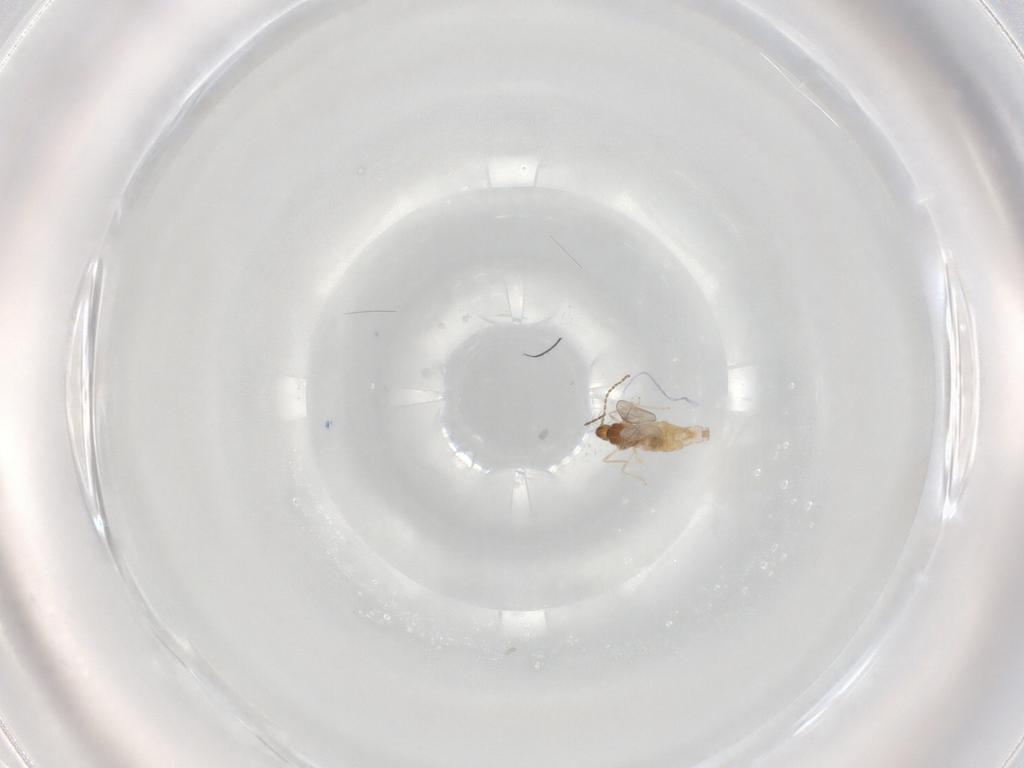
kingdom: Animalia
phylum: Arthropoda
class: Insecta
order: Diptera
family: Cecidomyiidae
